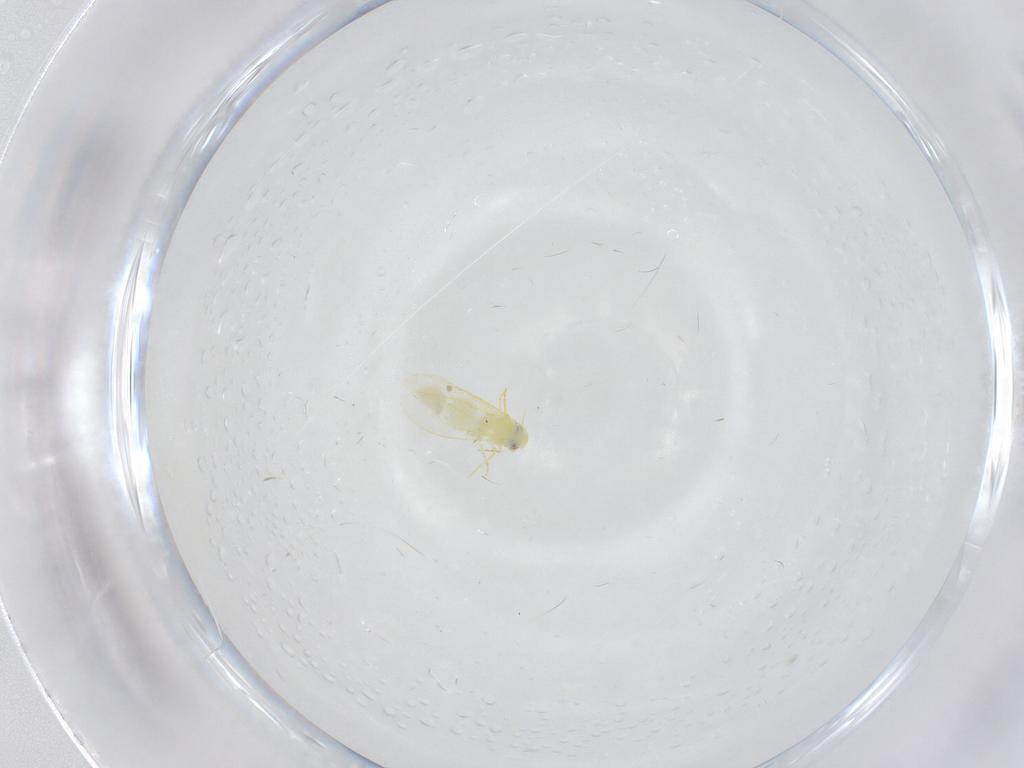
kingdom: Animalia
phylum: Arthropoda
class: Insecta
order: Hemiptera
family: Aleyrodidae
